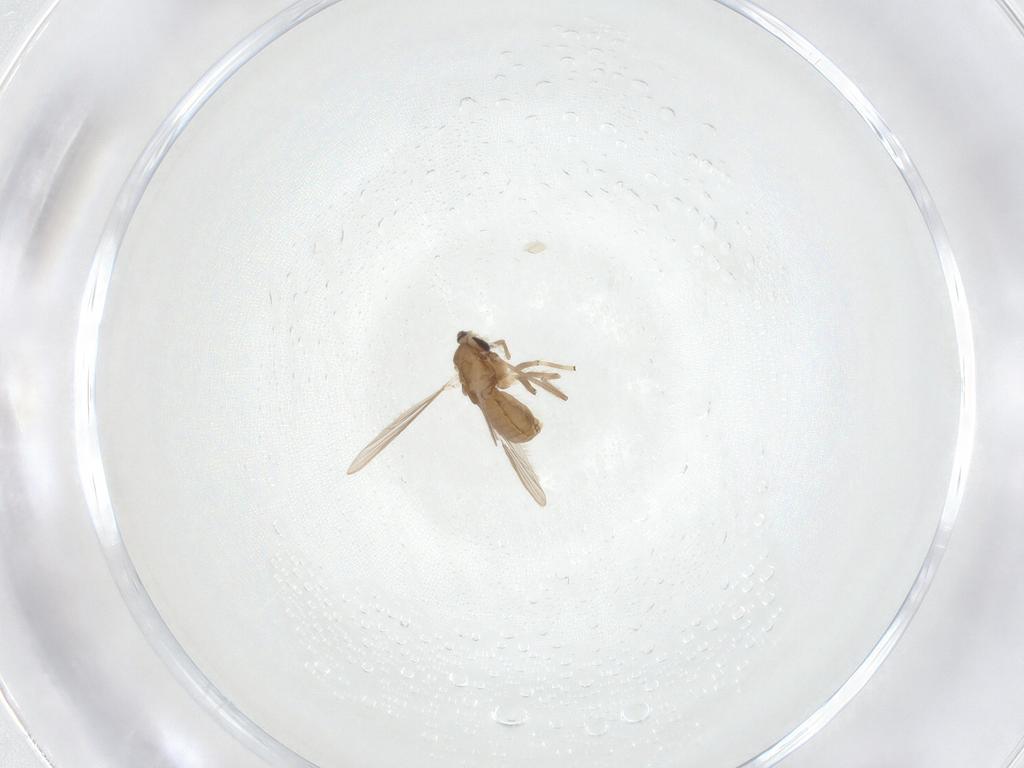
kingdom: Animalia
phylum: Arthropoda
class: Insecta
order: Diptera
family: Chironomidae
